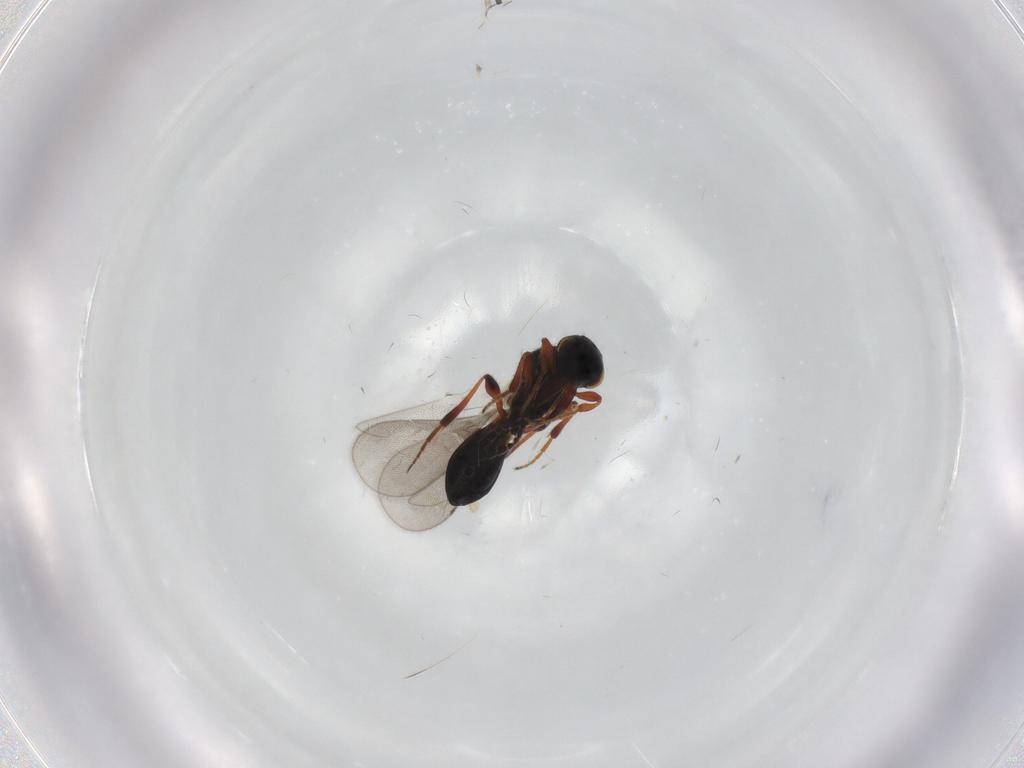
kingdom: Animalia
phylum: Arthropoda
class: Insecta
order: Hymenoptera
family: Platygastridae
